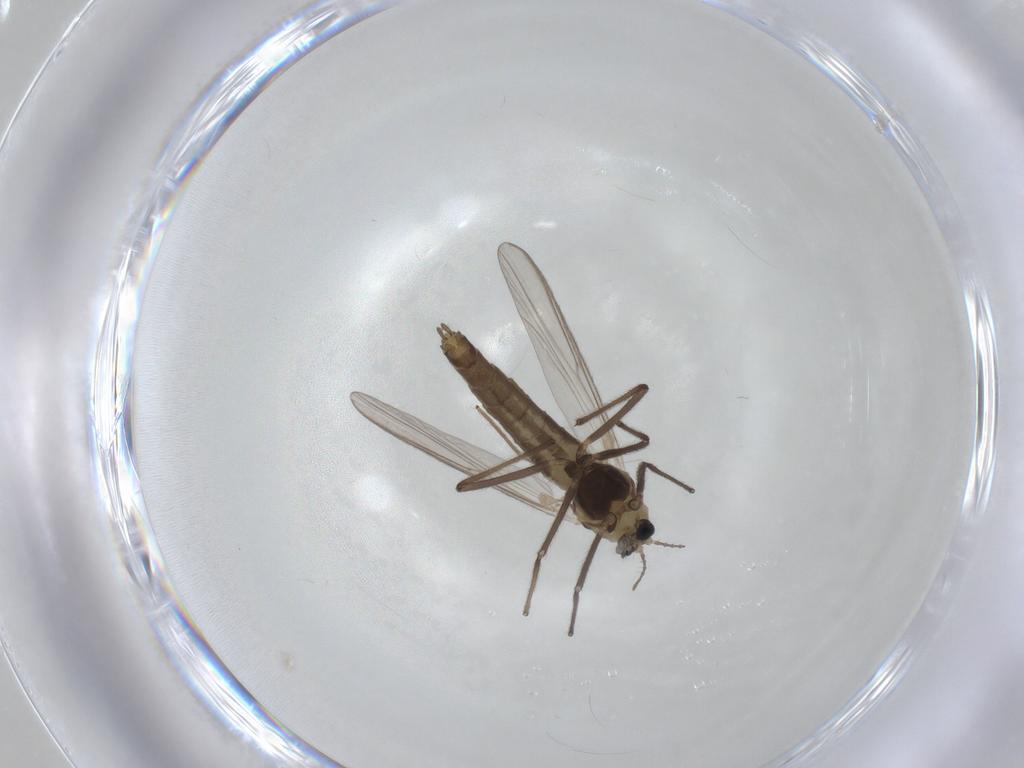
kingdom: Animalia
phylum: Arthropoda
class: Insecta
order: Diptera
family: Chironomidae
